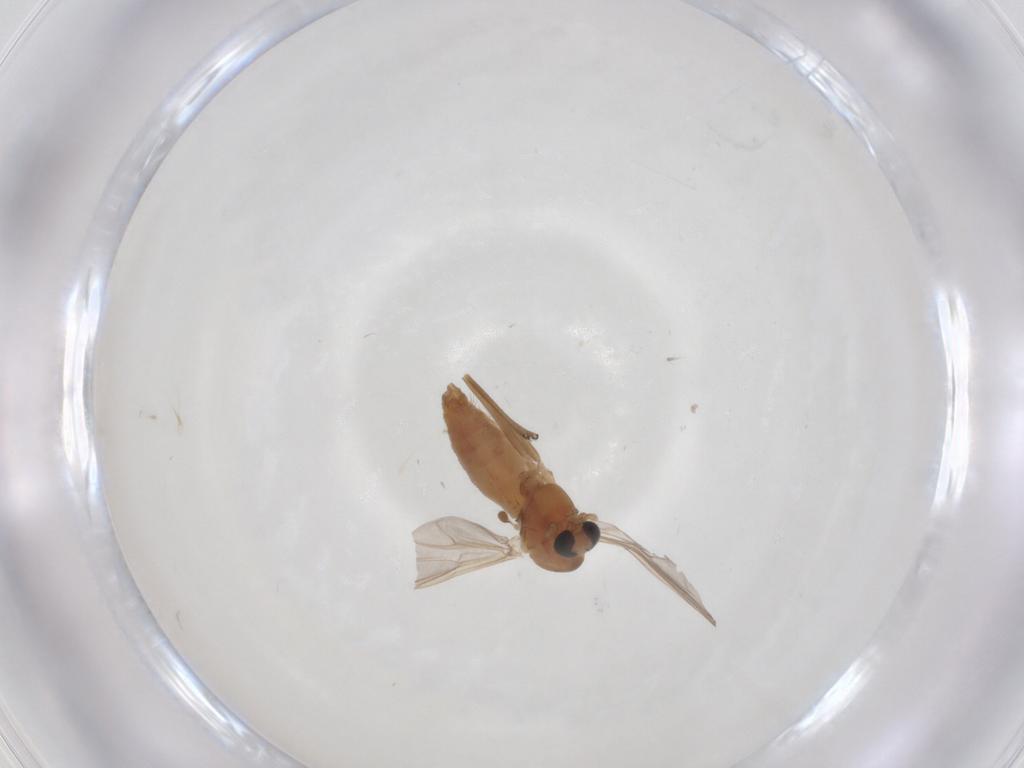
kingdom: Animalia
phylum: Arthropoda
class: Insecta
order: Diptera
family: Chironomidae
